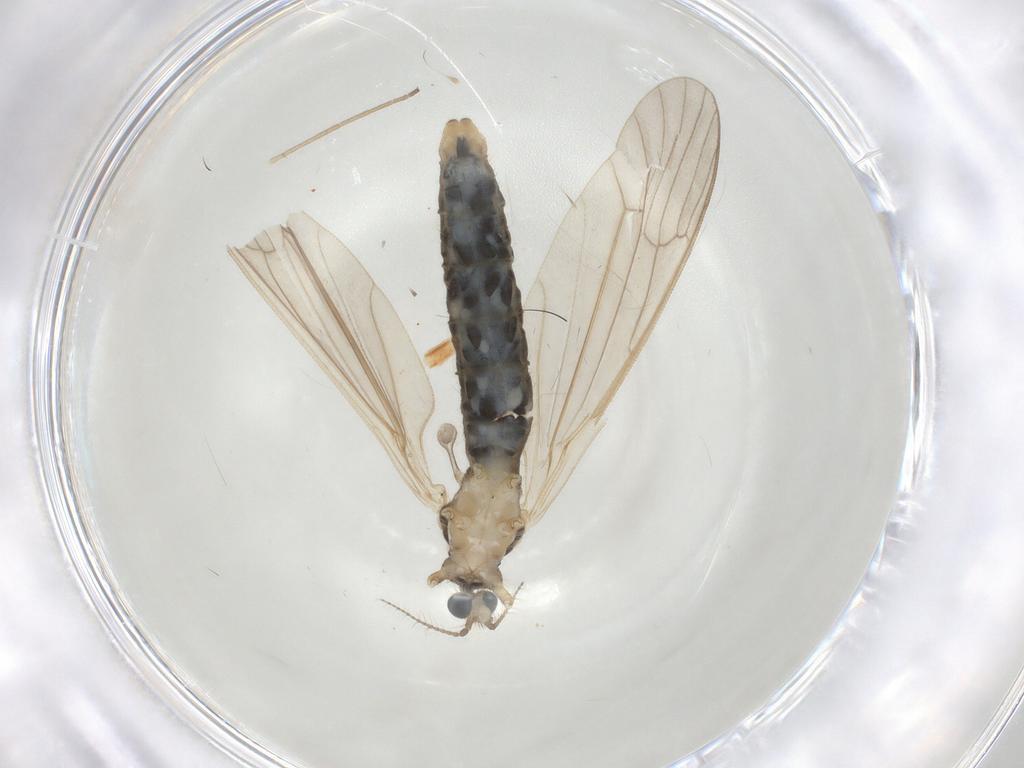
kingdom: Animalia
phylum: Arthropoda
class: Insecta
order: Diptera
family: Limoniidae
